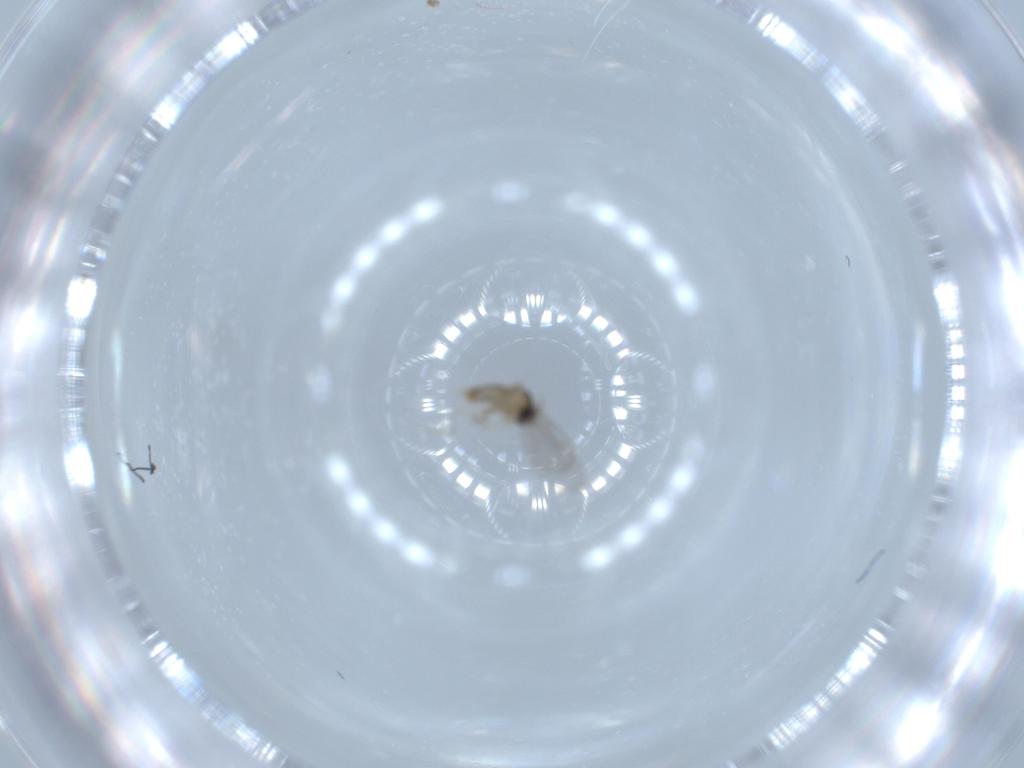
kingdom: Animalia
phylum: Arthropoda
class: Insecta
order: Diptera
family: Cecidomyiidae
